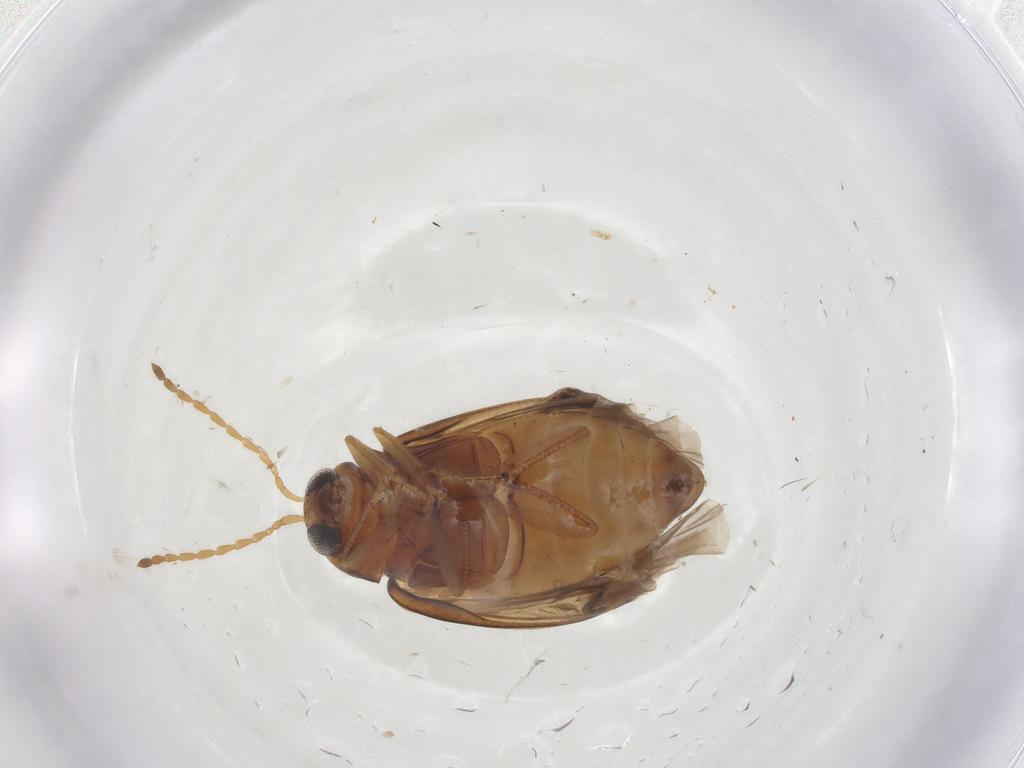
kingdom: Animalia
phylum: Arthropoda
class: Insecta
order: Coleoptera
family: Chrysomelidae
